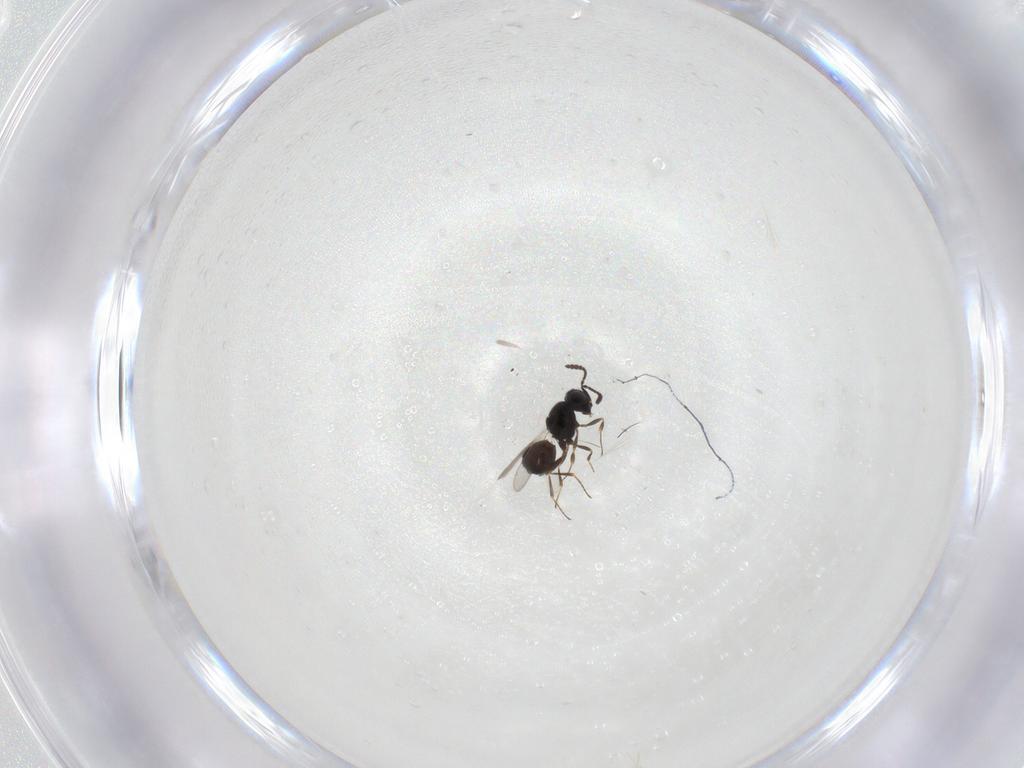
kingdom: Animalia
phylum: Arthropoda
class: Insecta
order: Hymenoptera
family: Scelionidae
